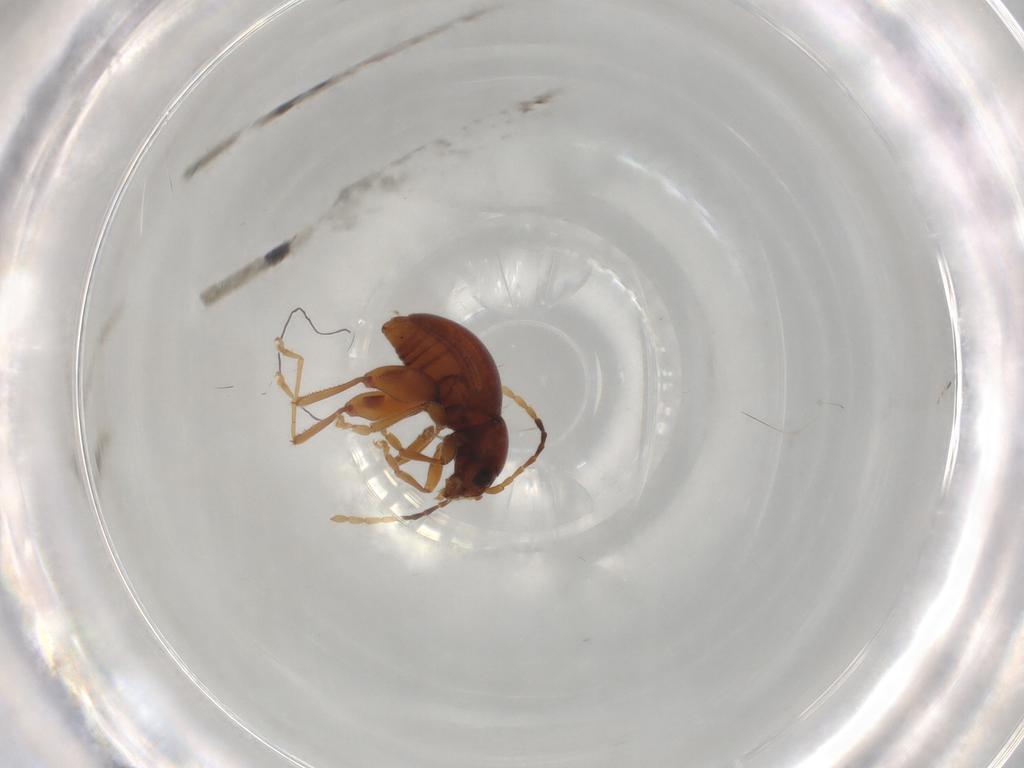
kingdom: Animalia
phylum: Arthropoda
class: Insecta
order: Coleoptera
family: Chrysomelidae
